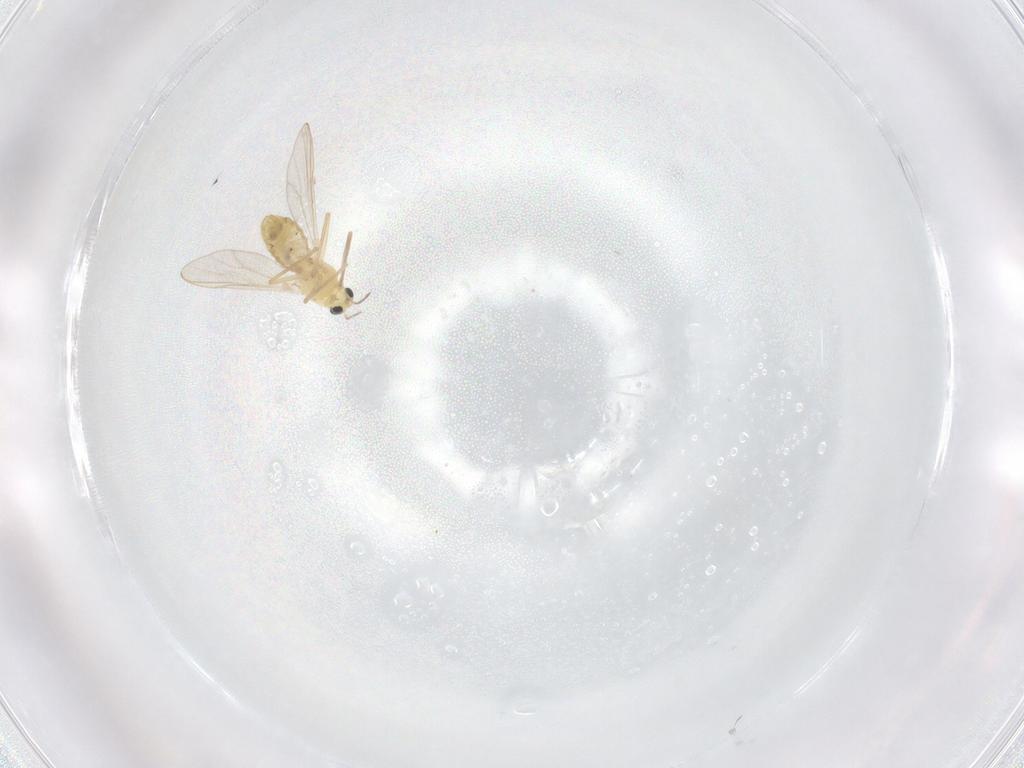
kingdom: Animalia
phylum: Arthropoda
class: Insecta
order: Diptera
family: Chironomidae
